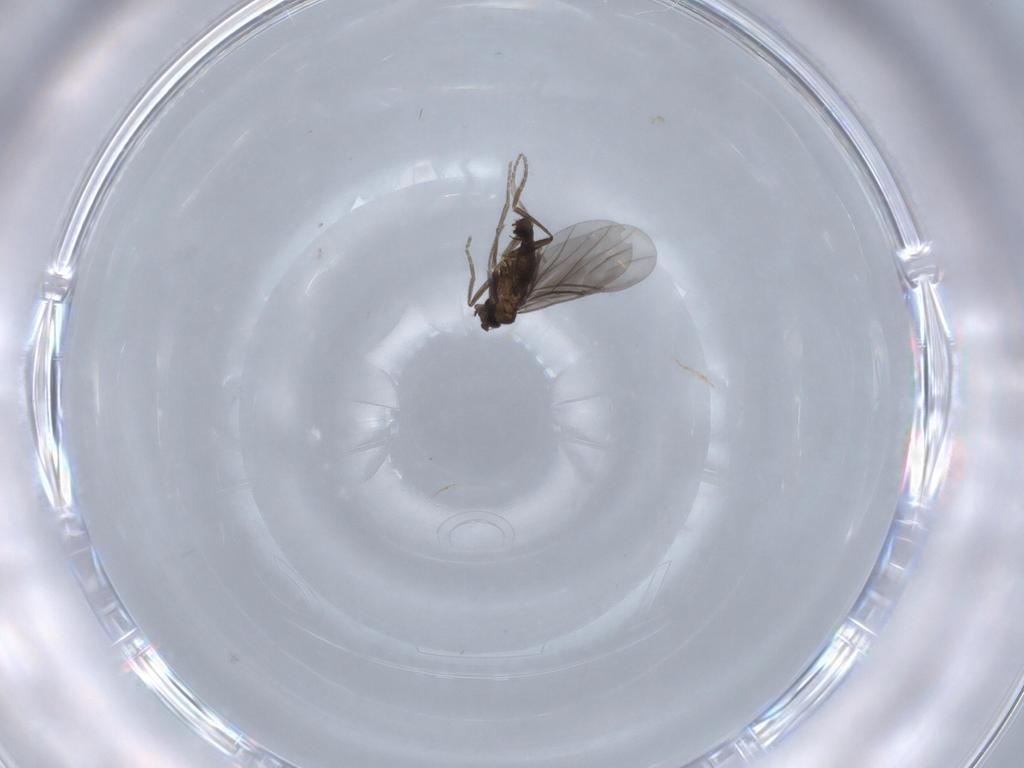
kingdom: Animalia
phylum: Arthropoda
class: Insecta
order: Diptera
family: Phoridae
